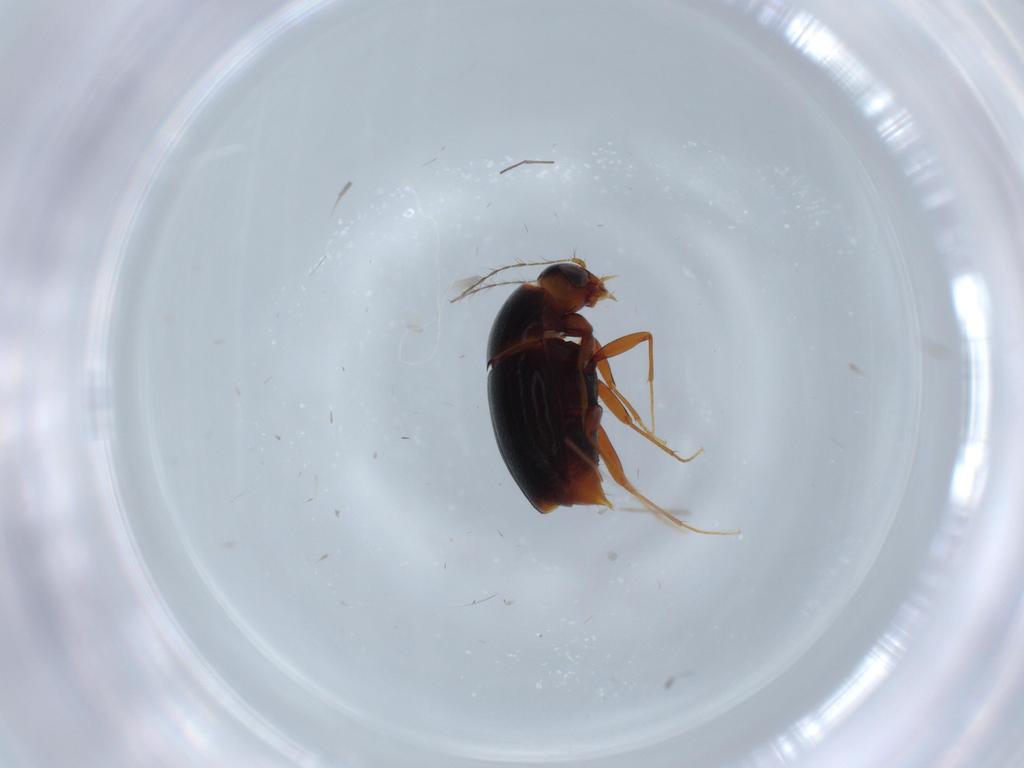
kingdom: Animalia
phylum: Arthropoda
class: Insecta
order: Coleoptera
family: Staphylinidae
